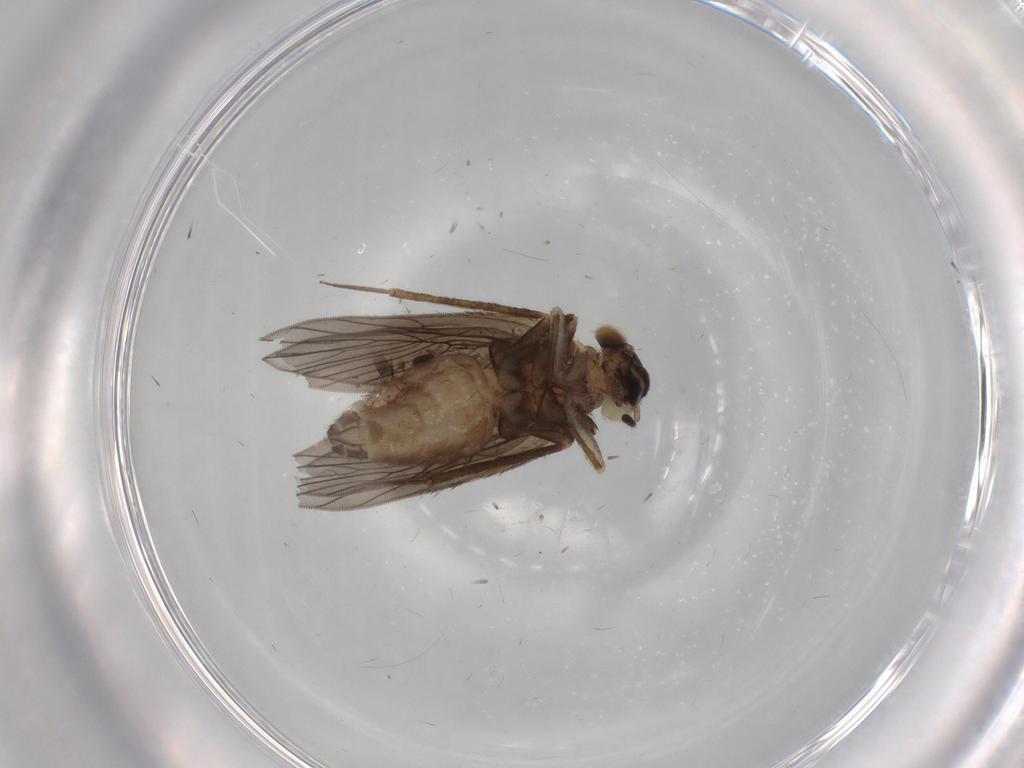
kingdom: Animalia
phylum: Arthropoda
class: Insecta
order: Psocodea
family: Lepidopsocidae
